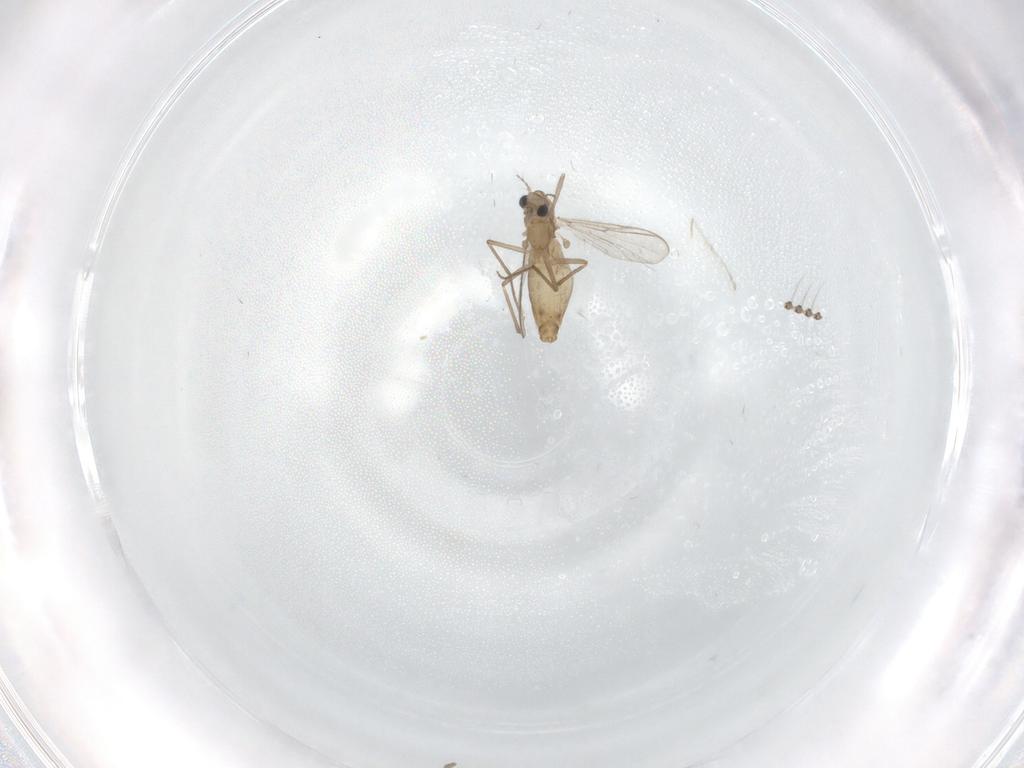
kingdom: Animalia
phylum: Arthropoda
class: Insecta
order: Diptera
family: Chironomidae
